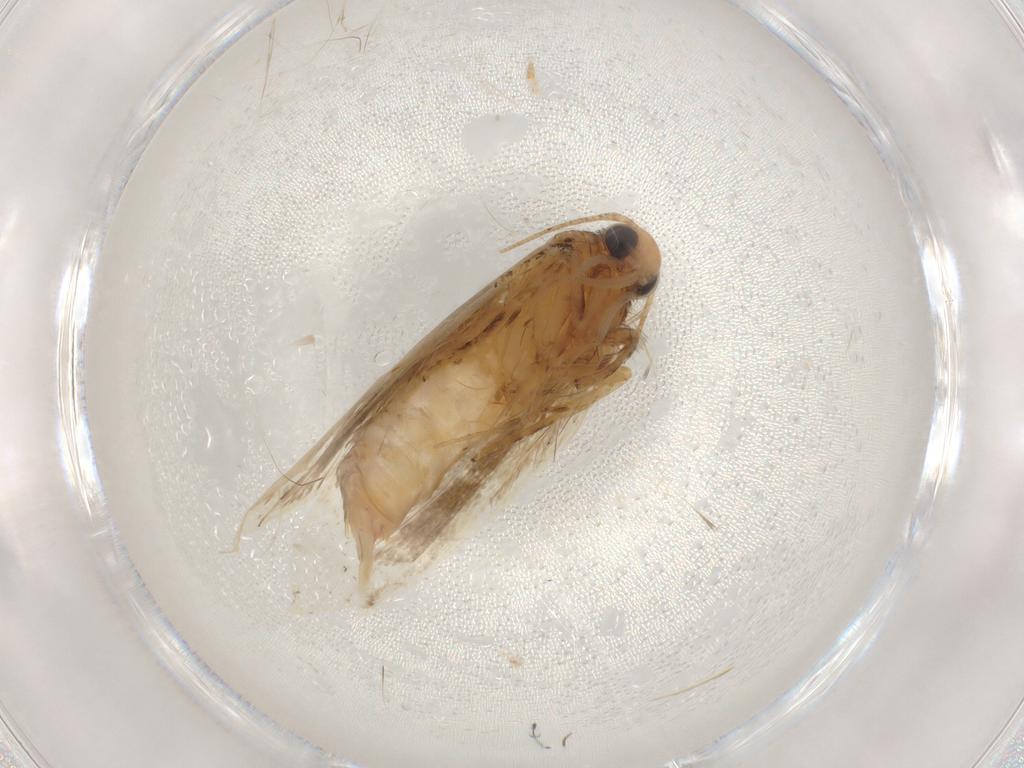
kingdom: Animalia
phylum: Arthropoda
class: Insecta
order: Lepidoptera
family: Depressariidae
